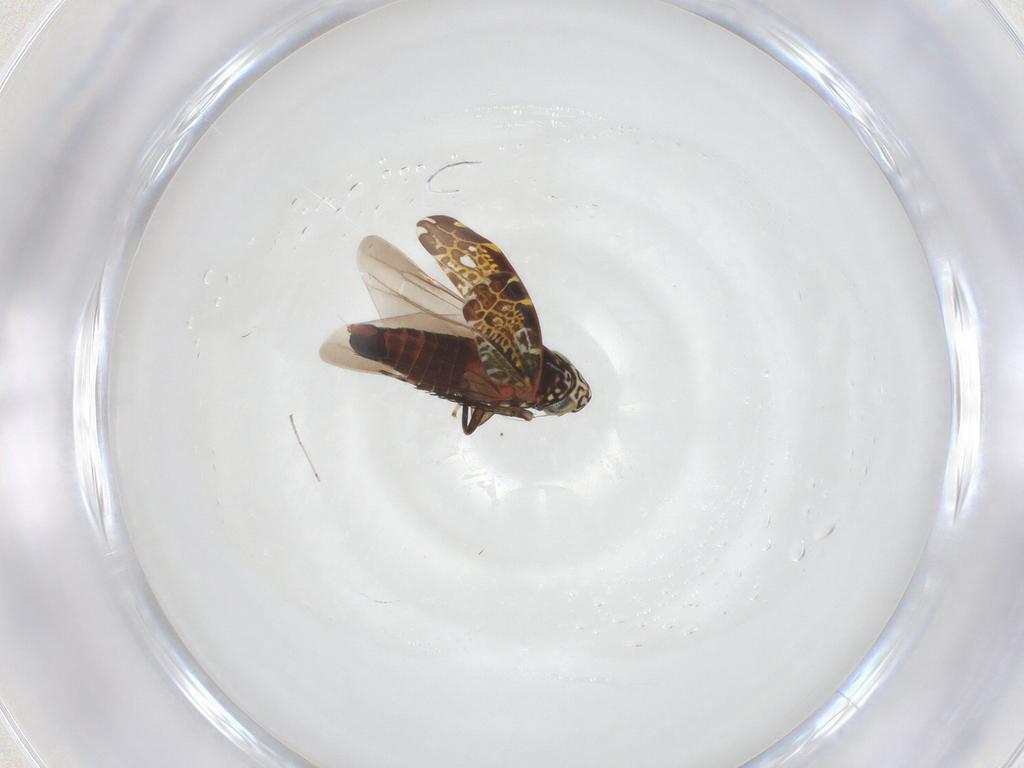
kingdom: Animalia
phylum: Arthropoda
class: Insecta
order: Hemiptera
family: Cicadellidae
